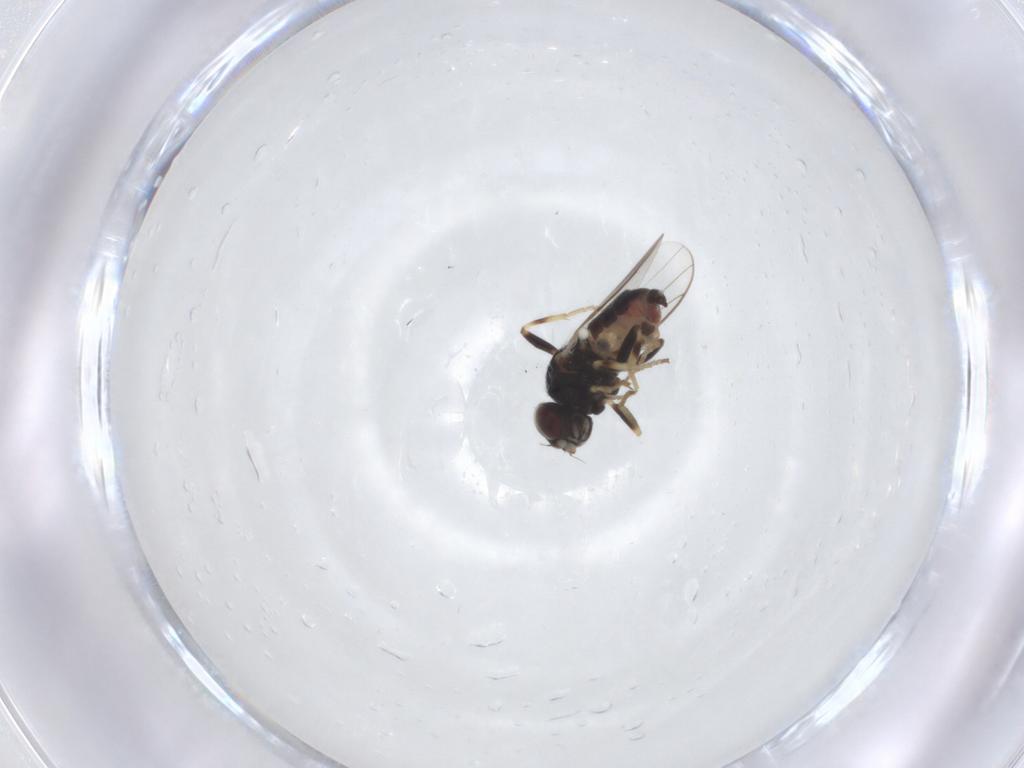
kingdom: Animalia
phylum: Arthropoda
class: Insecta
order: Diptera
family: Chloropidae
